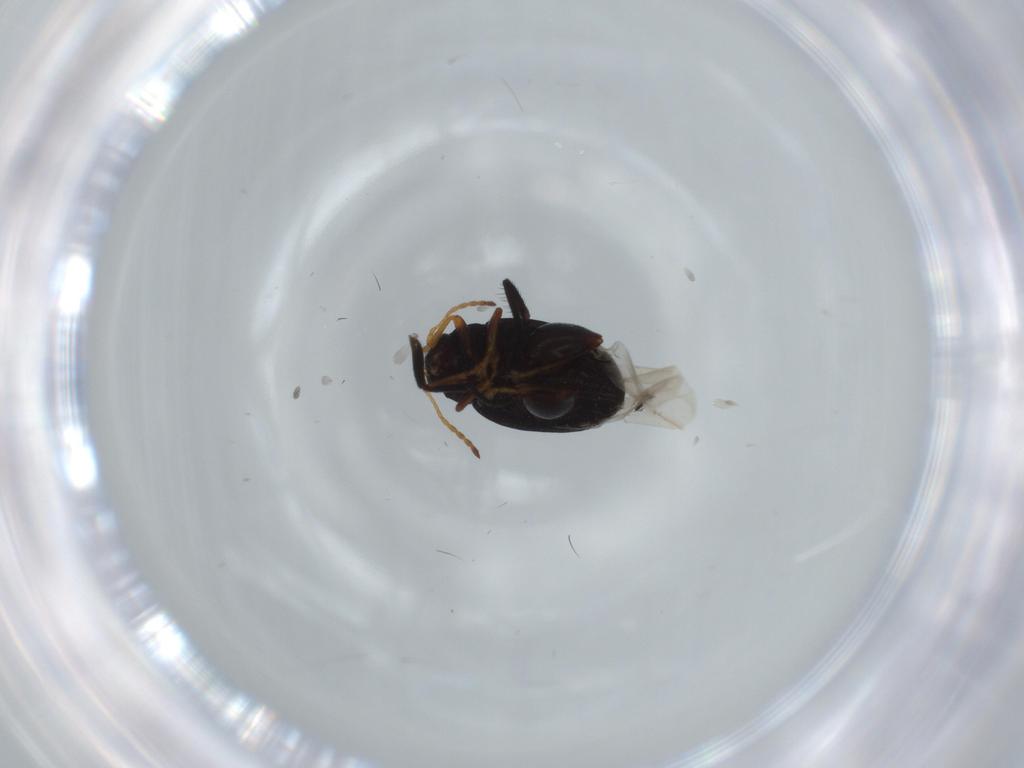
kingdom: Animalia
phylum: Arthropoda
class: Insecta
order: Coleoptera
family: Chrysomelidae
